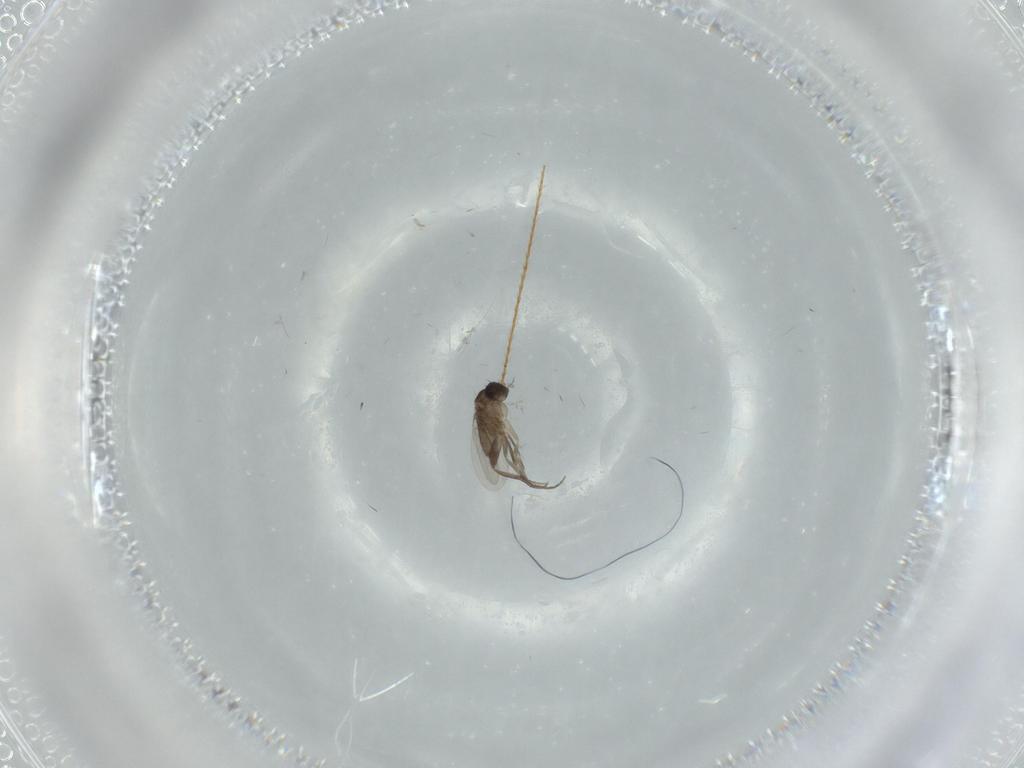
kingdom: Animalia
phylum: Arthropoda
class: Insecta
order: Diptera
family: Phoridae
